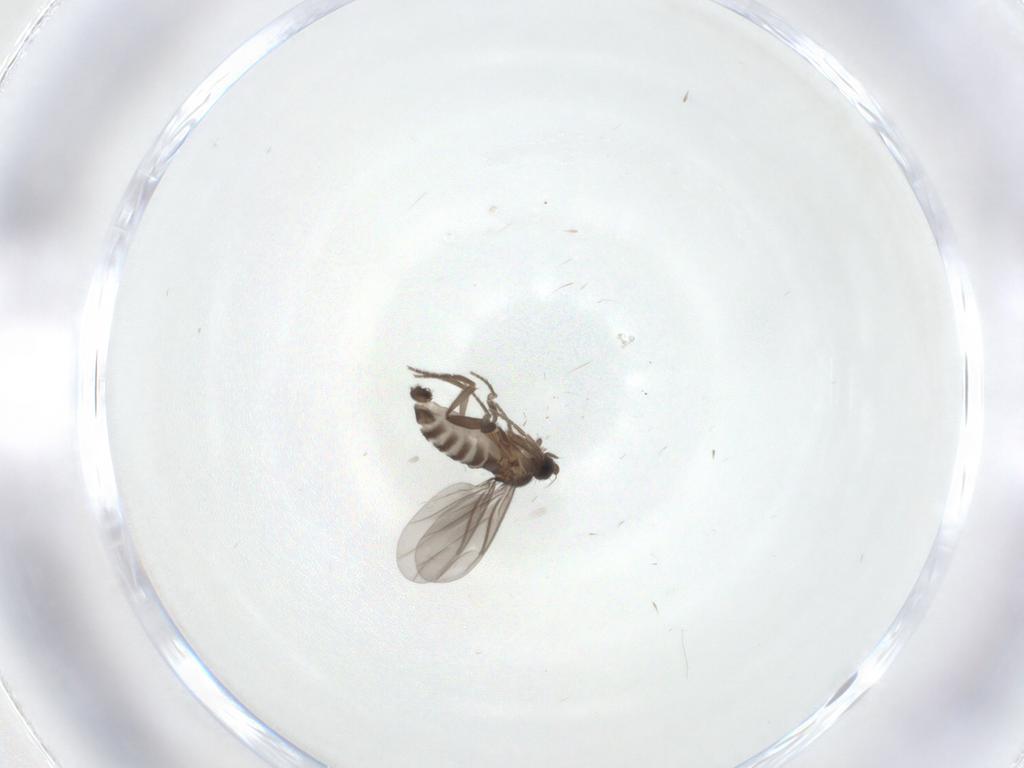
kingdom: Animalia
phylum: Arthropoda
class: Insecta
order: Diptera
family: Phoridae
